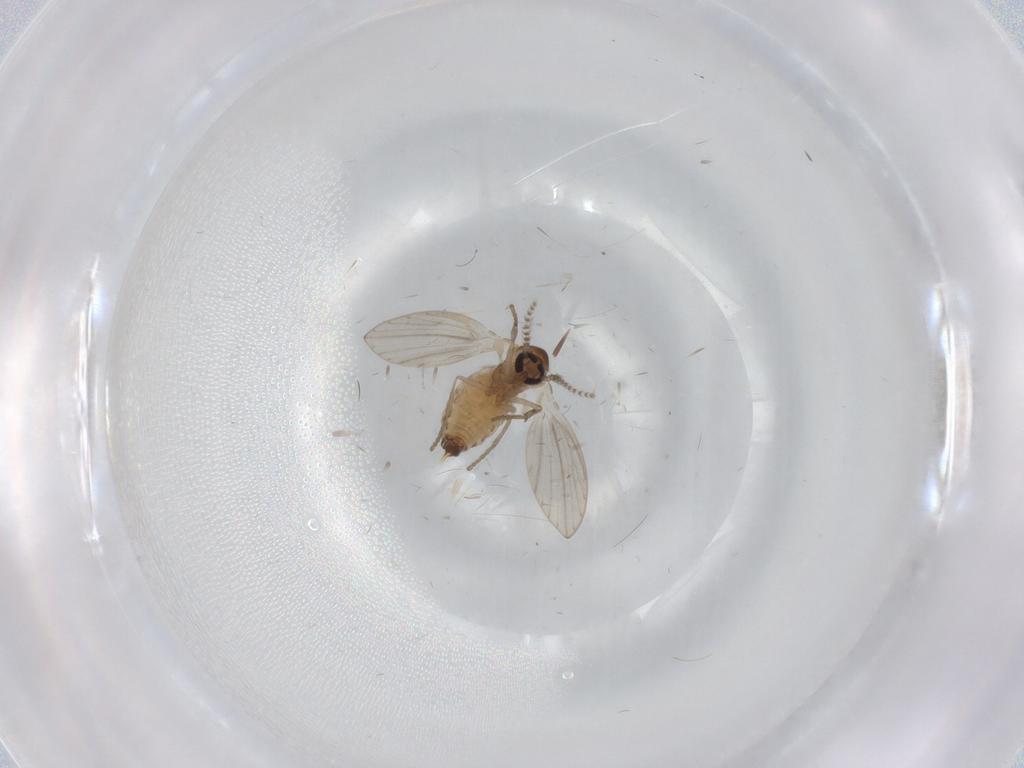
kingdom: Animalia
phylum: Arthropoda
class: Insecta
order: Diptera
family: Psychodidae
